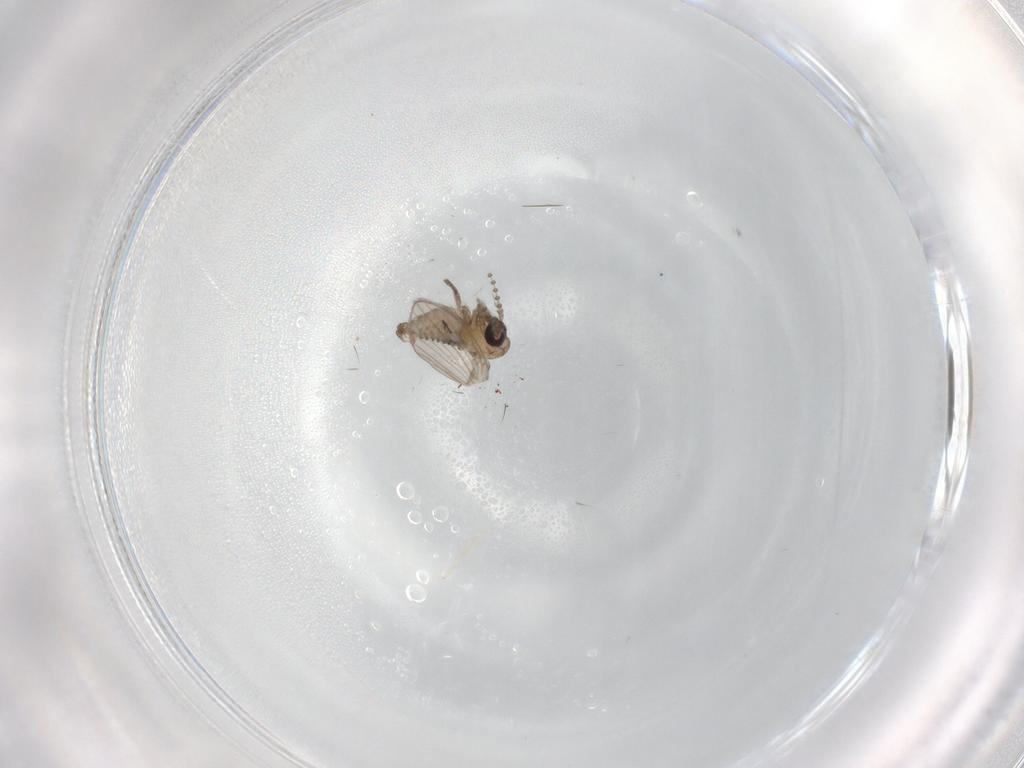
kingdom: Animalia
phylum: Arthropoda
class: Insecta
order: Diptera
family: Psychodidae
